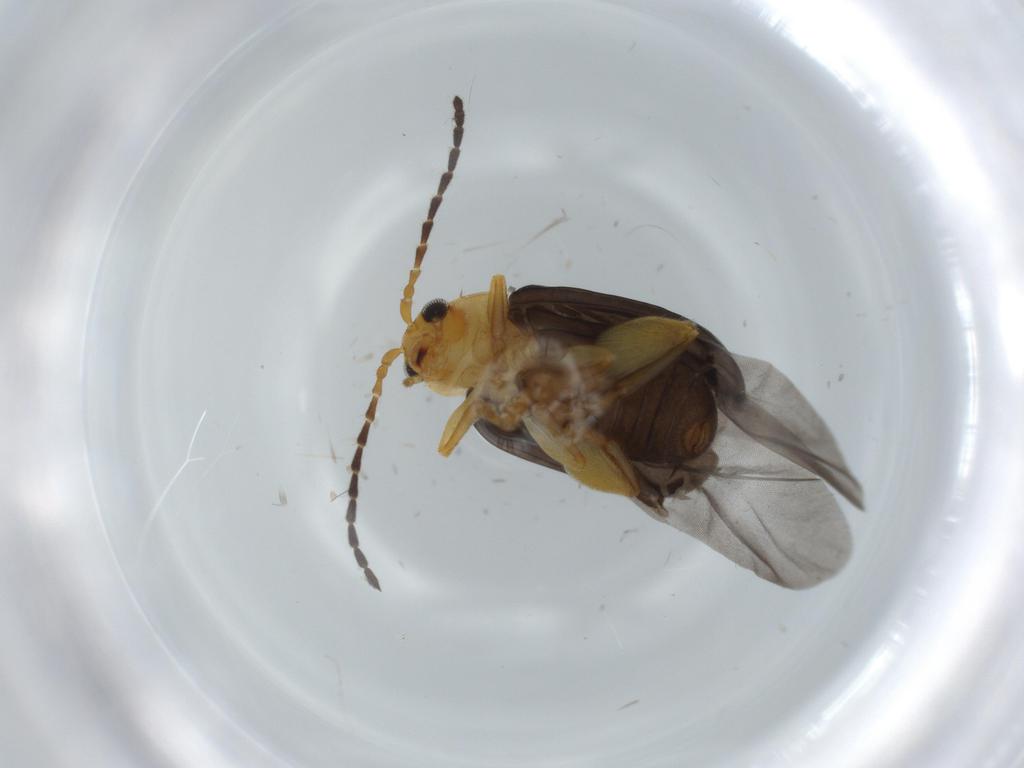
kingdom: Animalia
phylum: Arthropoda
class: Insecta
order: Coleoptera
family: Chrysomelidae
